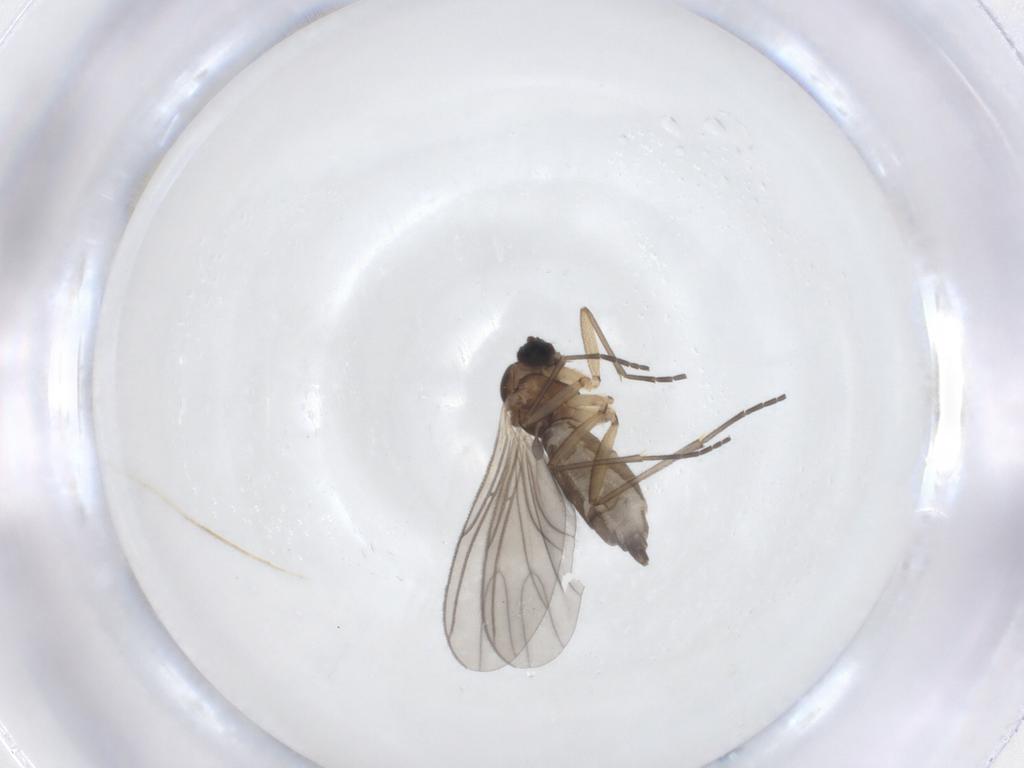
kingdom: Animalia
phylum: Arthropoda
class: Insecta
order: Diptera
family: Sciaridae
